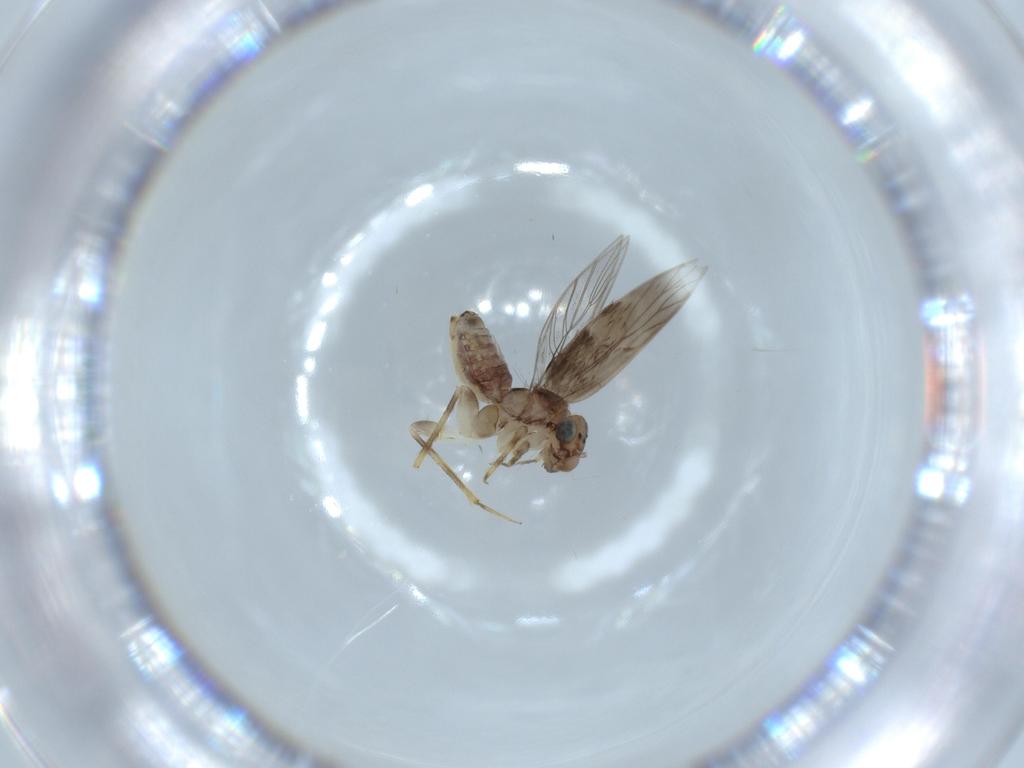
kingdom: Animalia
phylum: Arthropoda
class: Insecta
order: Psocodea
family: Lepidopsocidae
